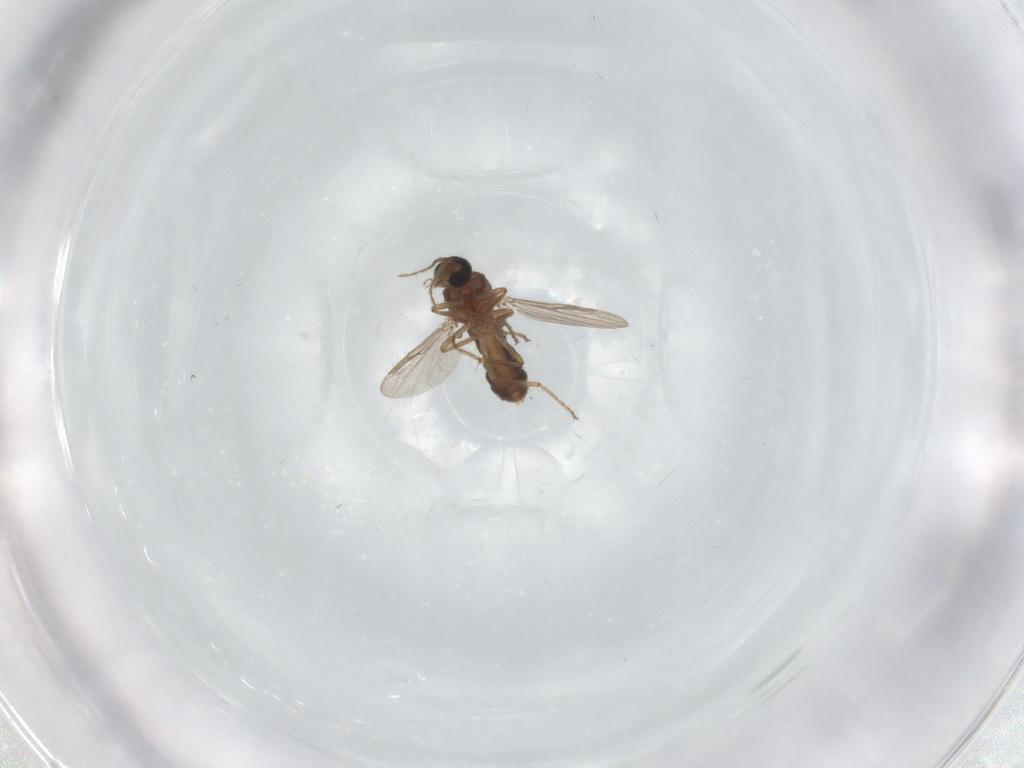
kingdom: Animalia
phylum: Arthropoda
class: Insecta
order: Diptera
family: Ceratopogonidae
